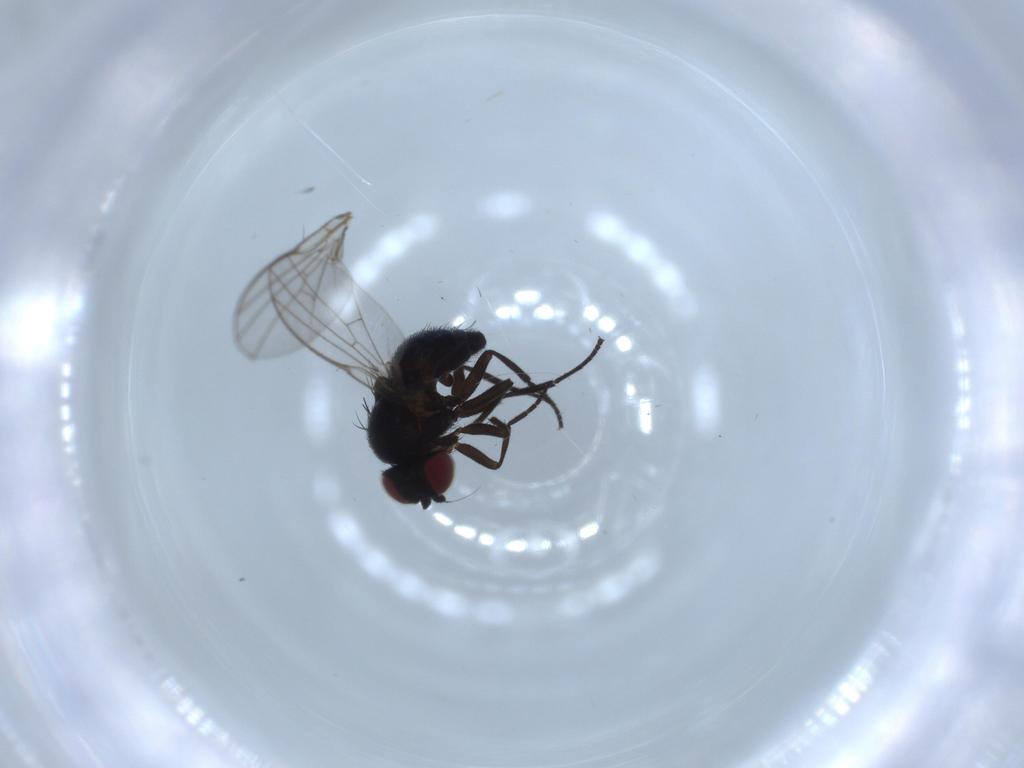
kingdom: Animalia
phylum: Arthropoda
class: Insecta
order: Diptera
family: Agromyzidae
